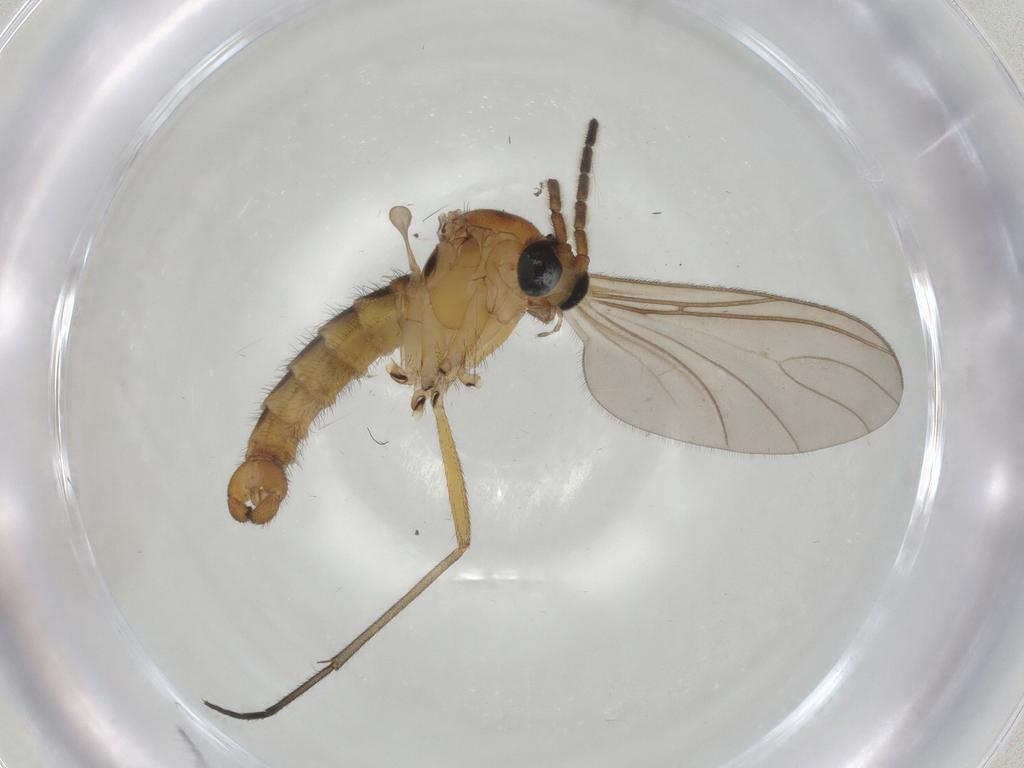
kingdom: Animalia
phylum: Arthropoda
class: Insecta
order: Diptera
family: Sciaridae
